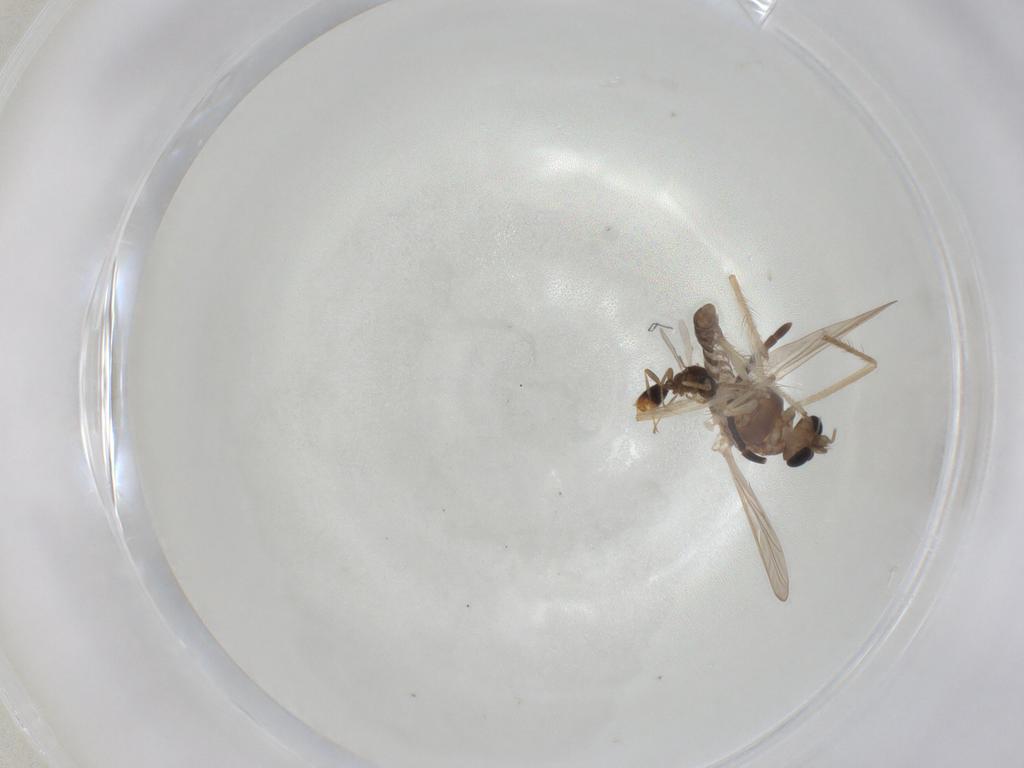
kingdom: Animalia
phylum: Arthropoda
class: Insecta
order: Diptera
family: Chironomidae
